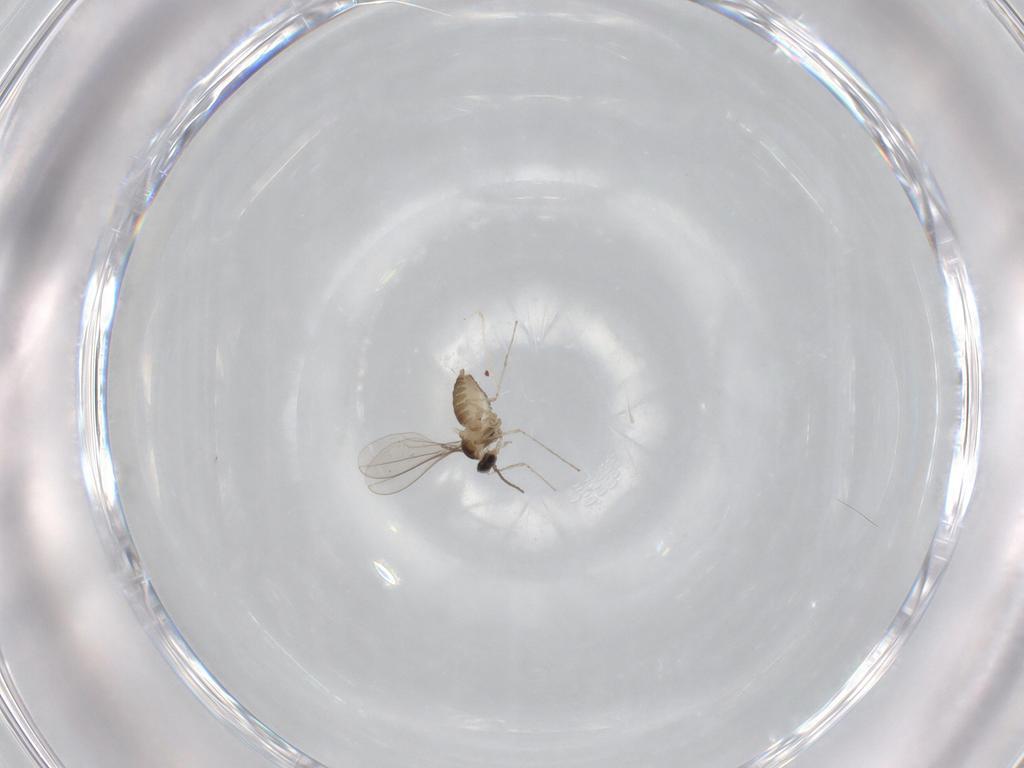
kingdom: Animalia
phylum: Arthropoda
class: Insecta
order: Diptera
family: Cecidomyiidae
